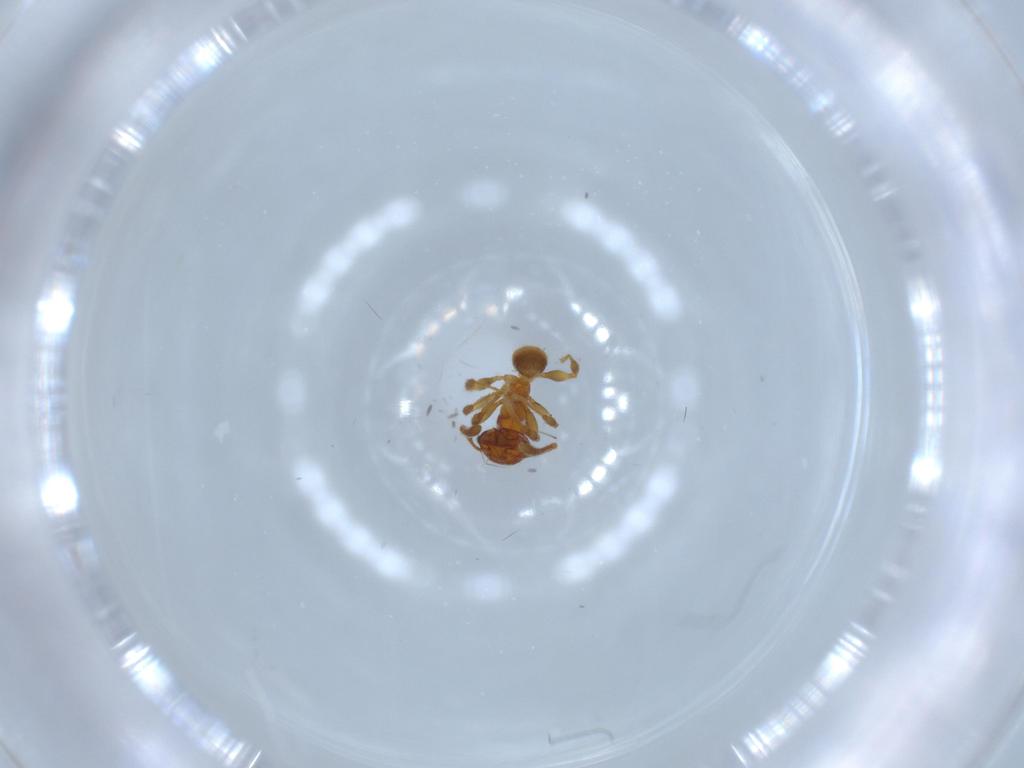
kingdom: Animalia
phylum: Arthropoda
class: Insecta
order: Hymenoptera
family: Formicidae
